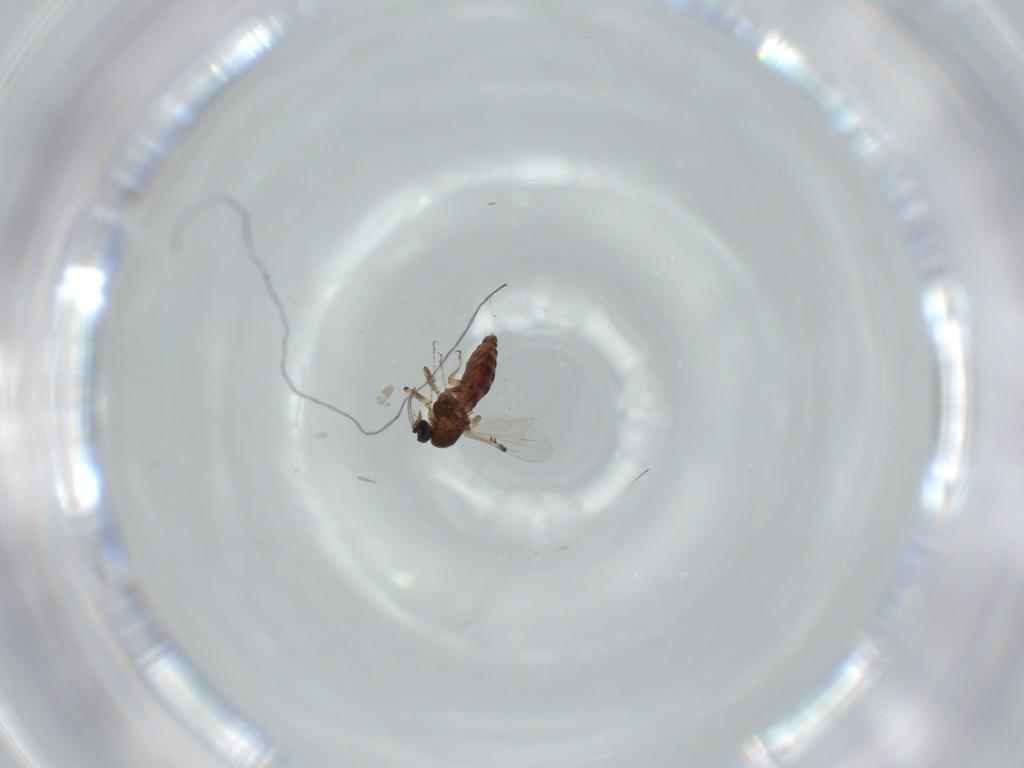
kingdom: Animalia
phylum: Arthropoda
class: Insecta
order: Diptera
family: Ceratopogonidae
